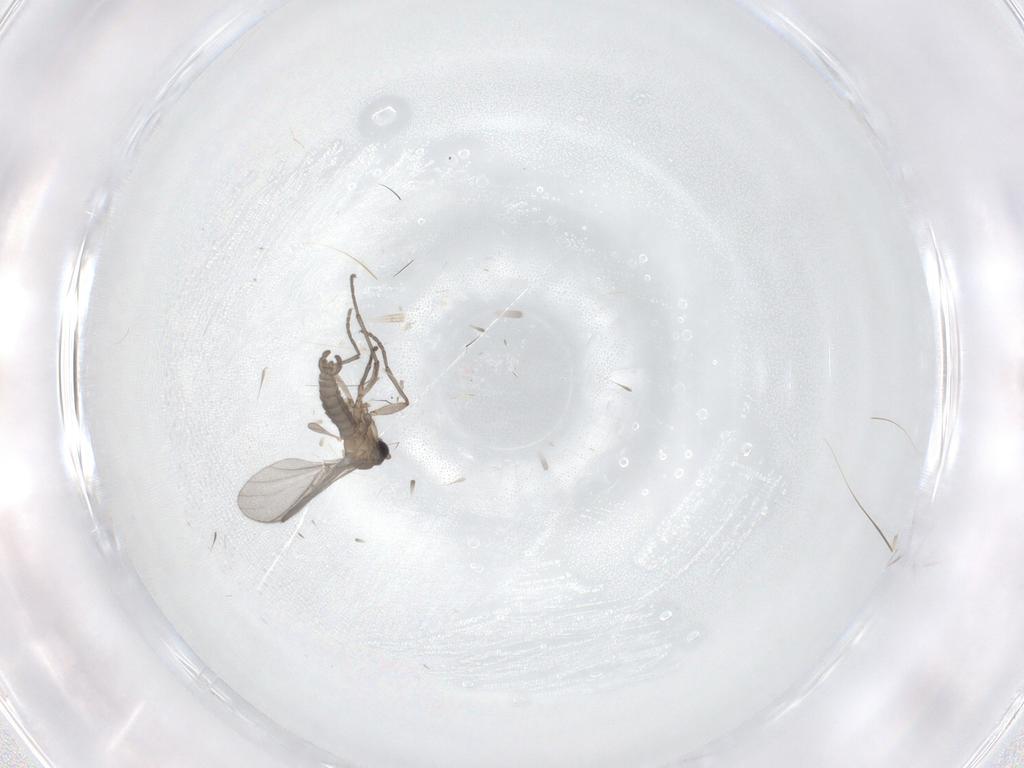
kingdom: Animalia
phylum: Arthropoda
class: Insecta
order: Diptera
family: Sciaridae
